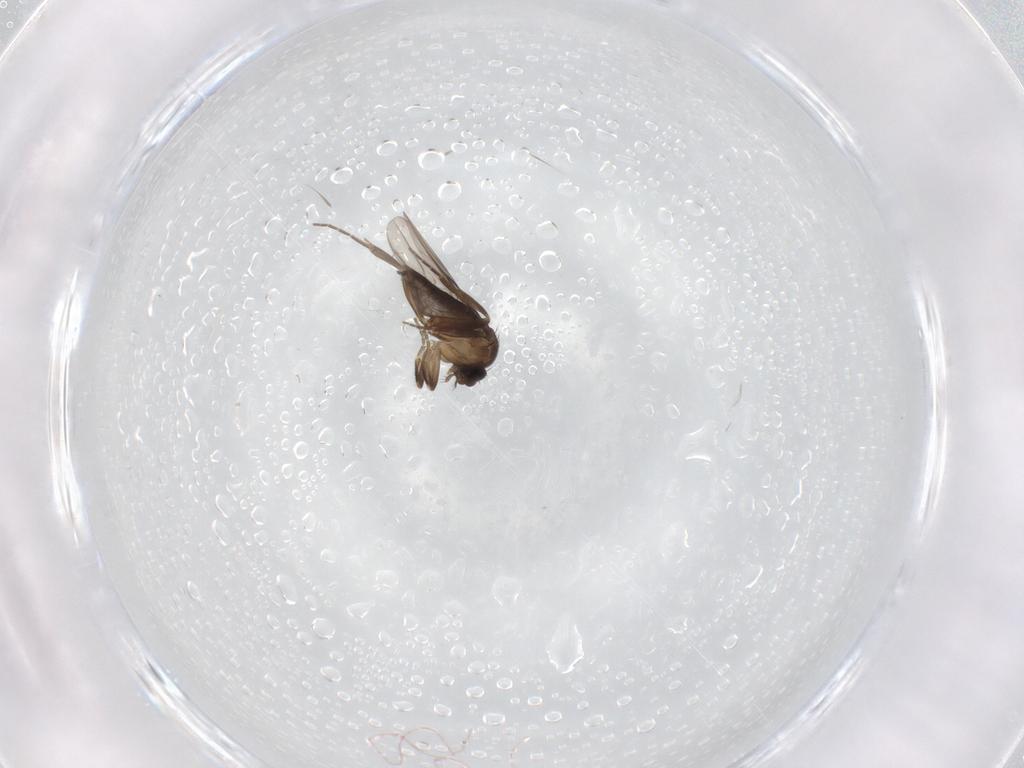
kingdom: Animalia
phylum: Arthropoda
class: Insecta
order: Diptera
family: Phoridae
